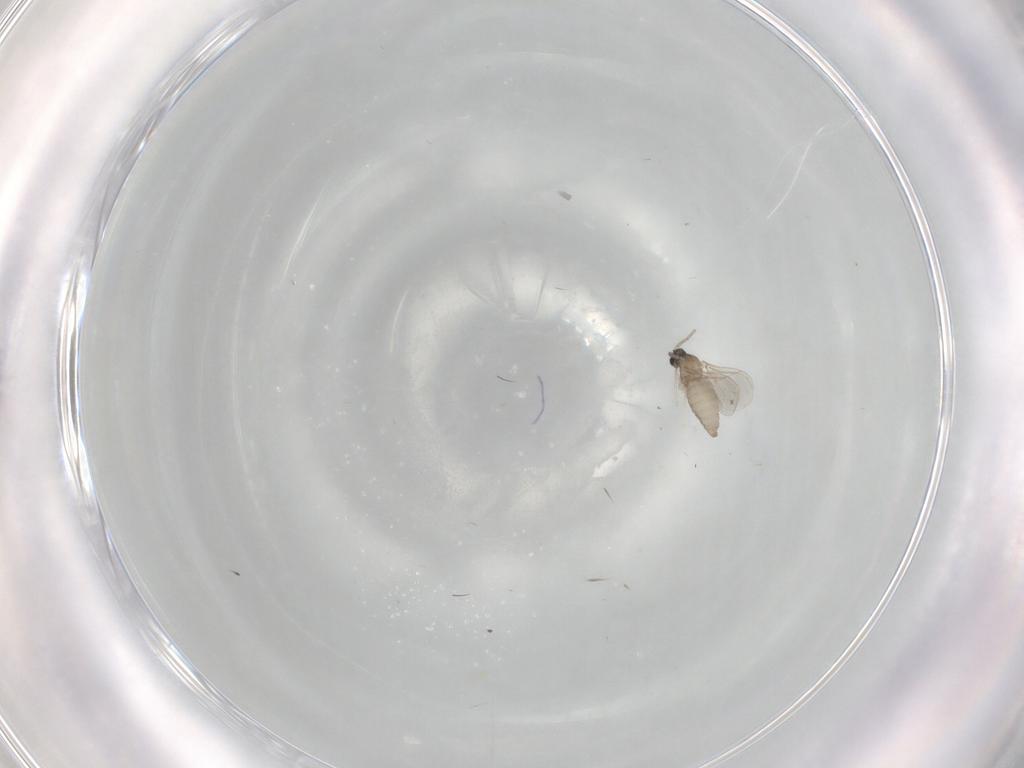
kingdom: Animalia
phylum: Arthropoda
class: Insecta
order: Diptera
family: Cecidomyiidae
